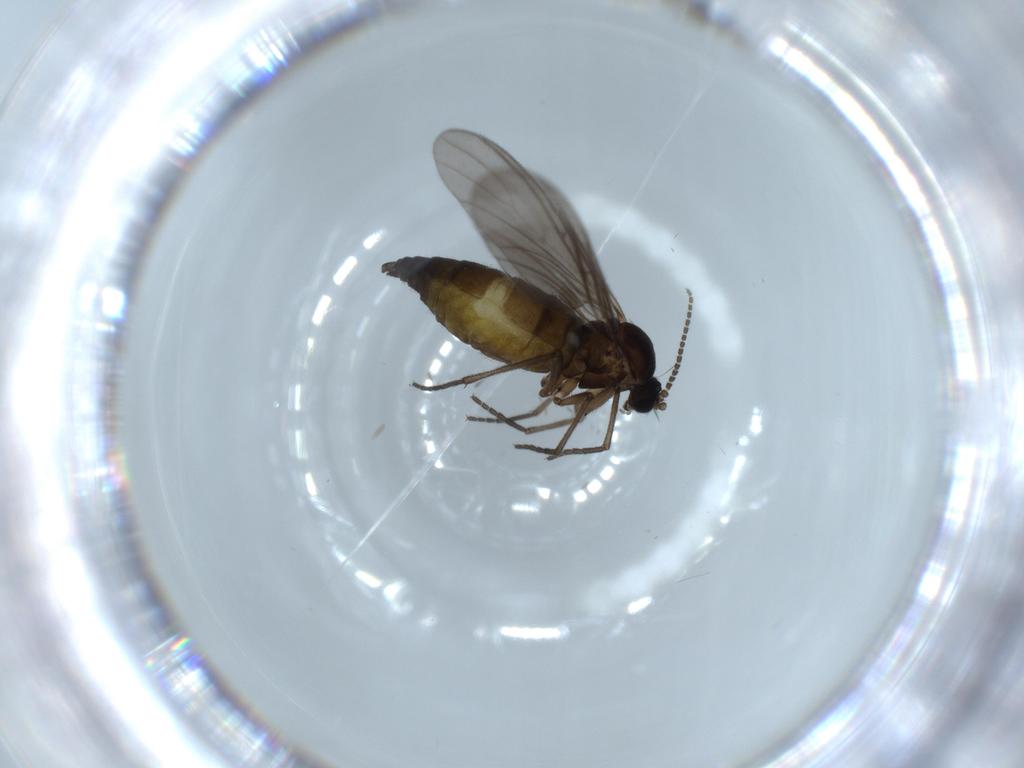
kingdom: Animalia
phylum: Arthropoda
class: Insecta
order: Diptera
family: Sciaridae
